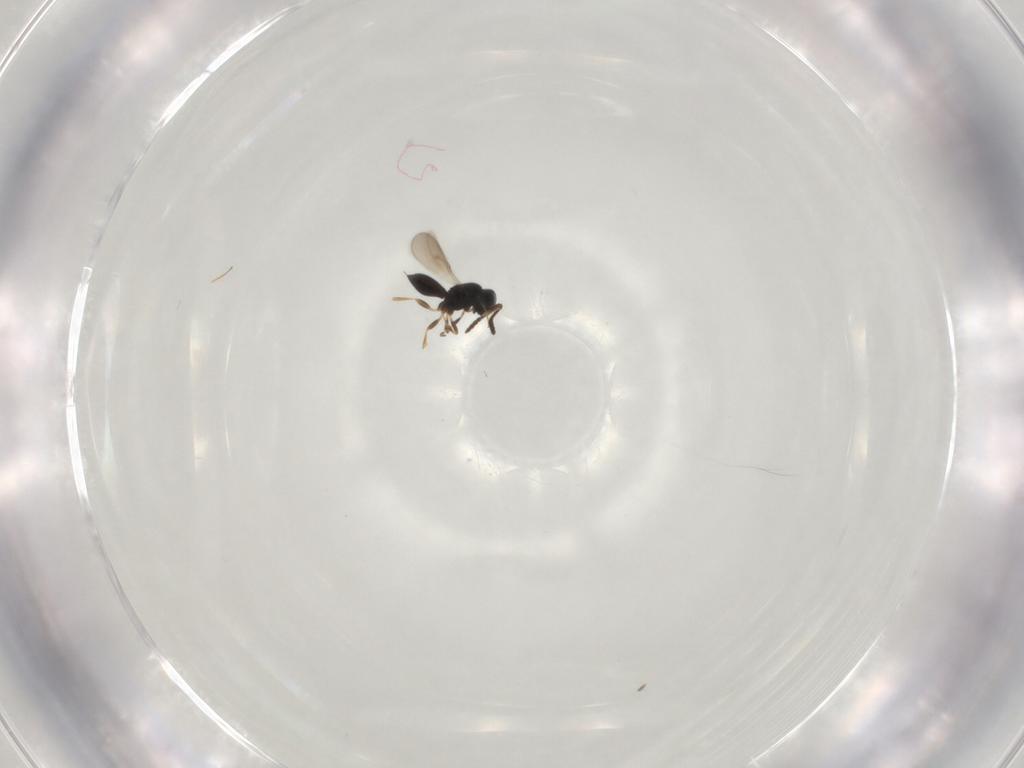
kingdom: Animalia
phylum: Arthropoda
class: Insecta
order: Hymenoptera
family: Scelionidae
